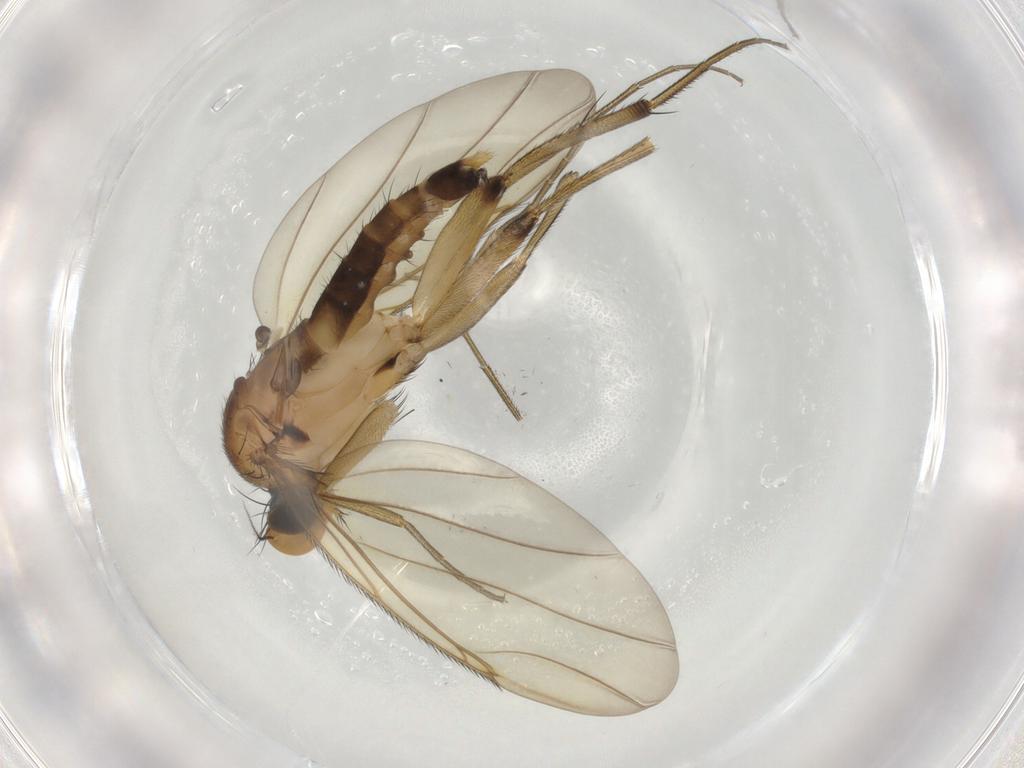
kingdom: Animalia
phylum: Arthropoda
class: Insecta
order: Diptera
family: Phoridae
